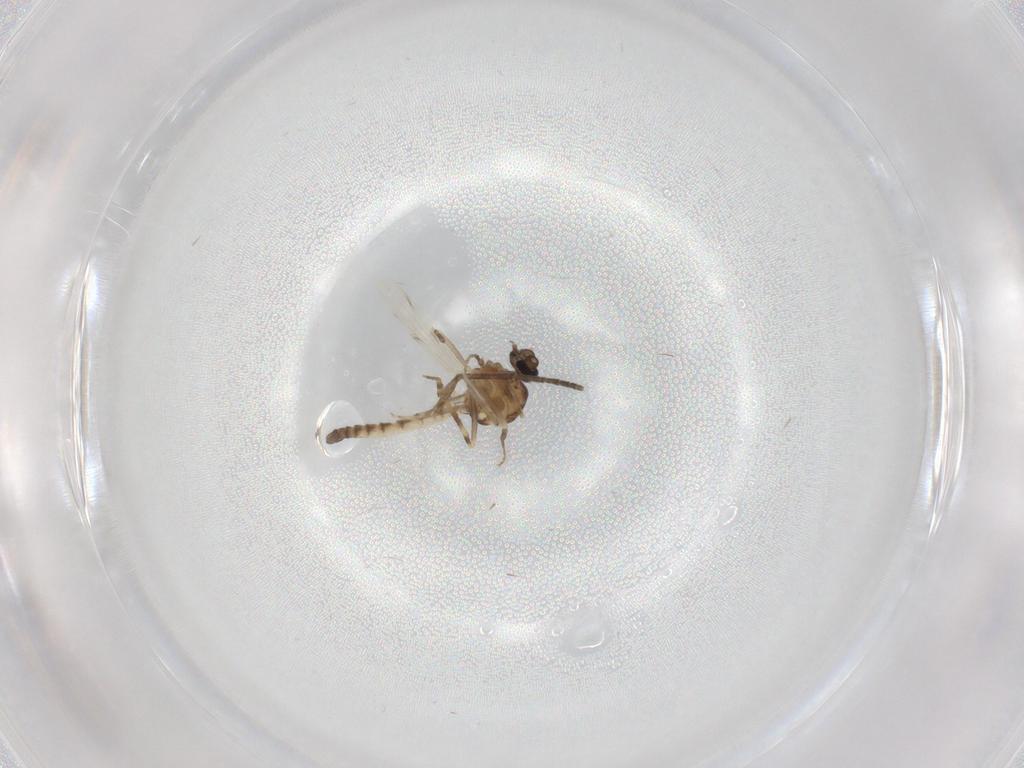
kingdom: Animalia
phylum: Arthropoda
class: Insecta
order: Diptera
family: Ceratopogonidae
